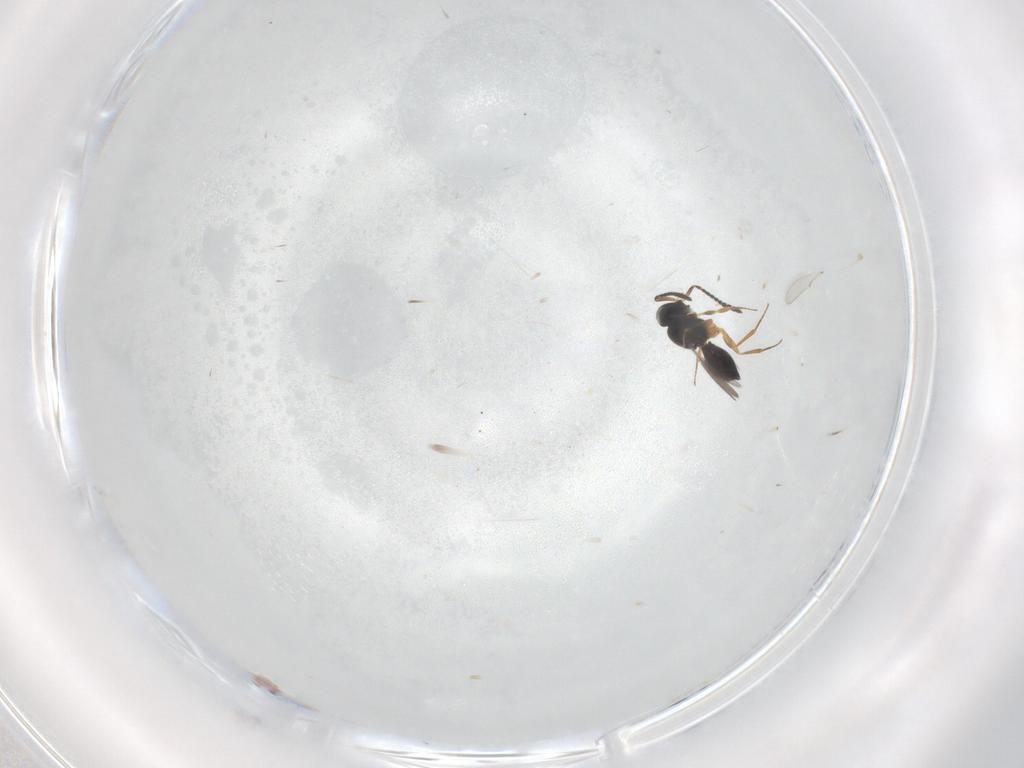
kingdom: Animalia
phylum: Arthropoda
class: Insecta
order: Hymenoptera
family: Scelionidae
